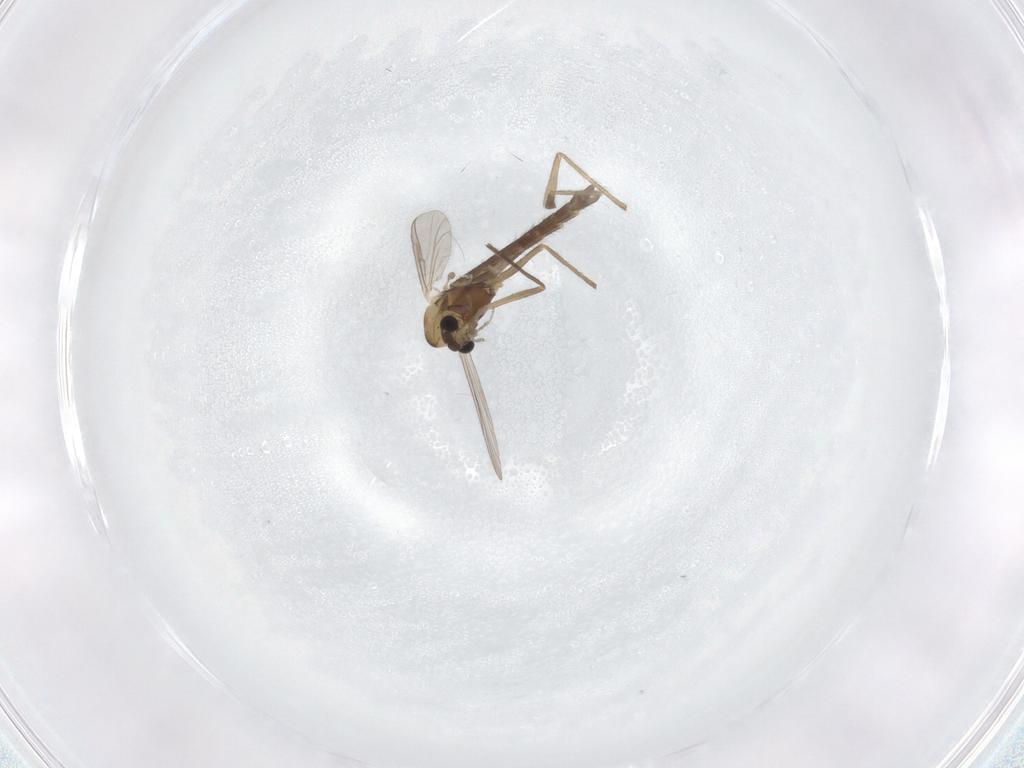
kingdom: Animalia
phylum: Arthropoda
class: Insecta
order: Diptera
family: Chironomidae
